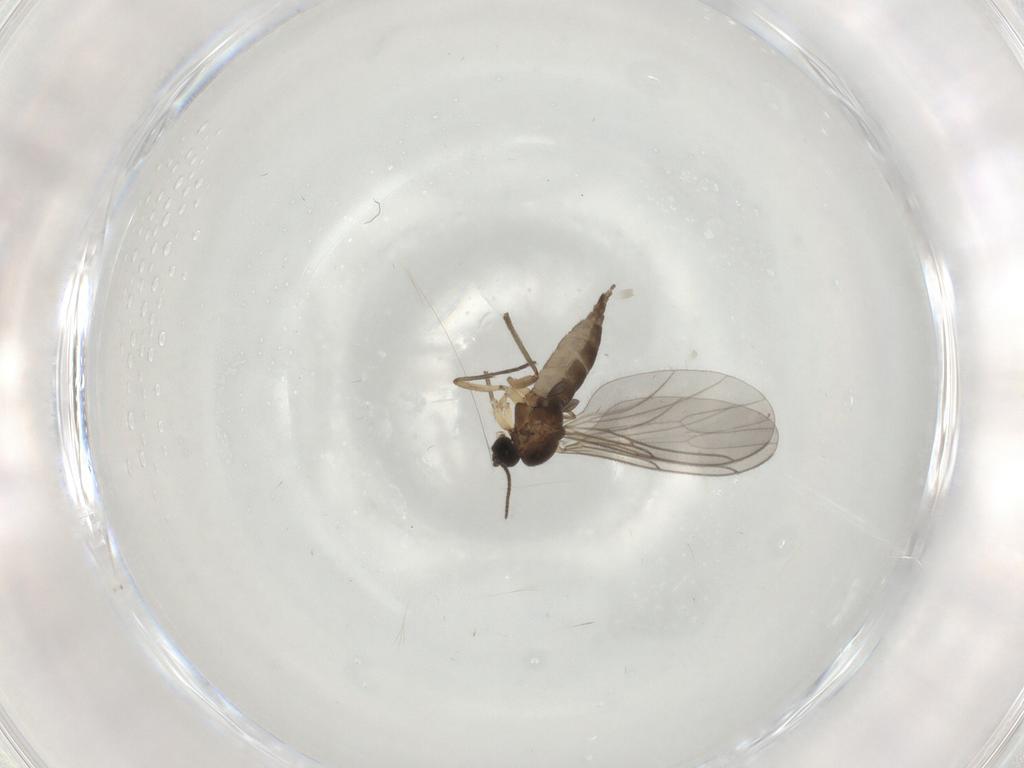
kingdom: Animalia
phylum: Arthropoda
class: Insecta
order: Diptera
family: Sciaridae
